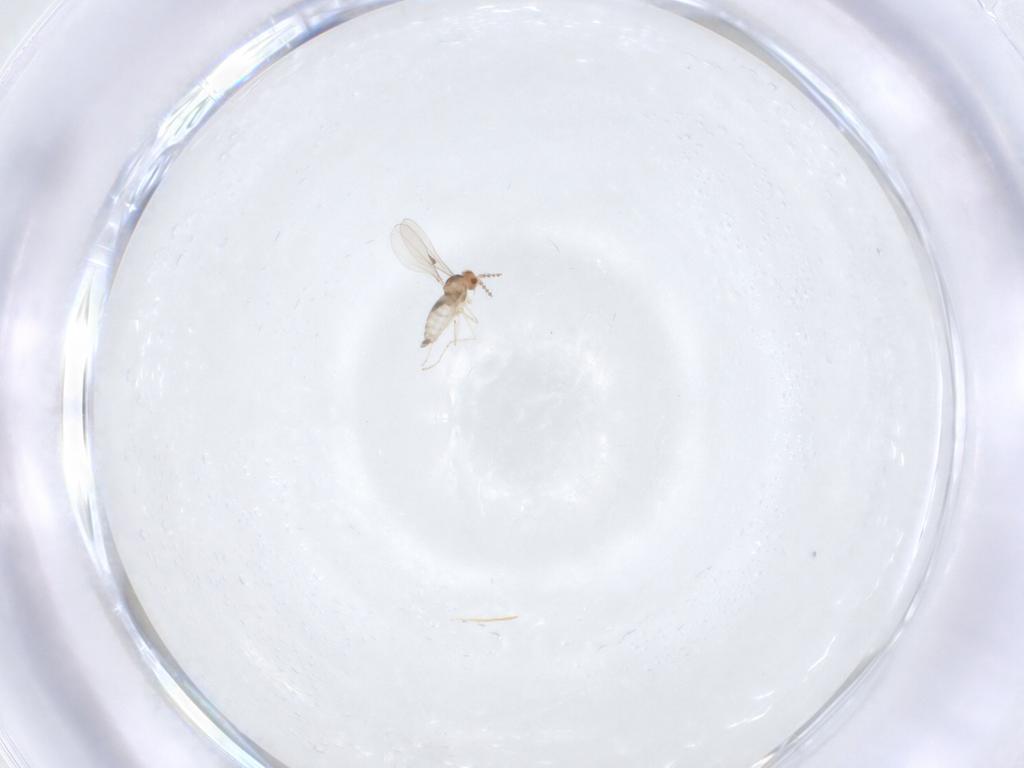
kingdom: Animalia
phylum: Arthropoda
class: Insecta
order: Diptera
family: Cecidomyiidae
